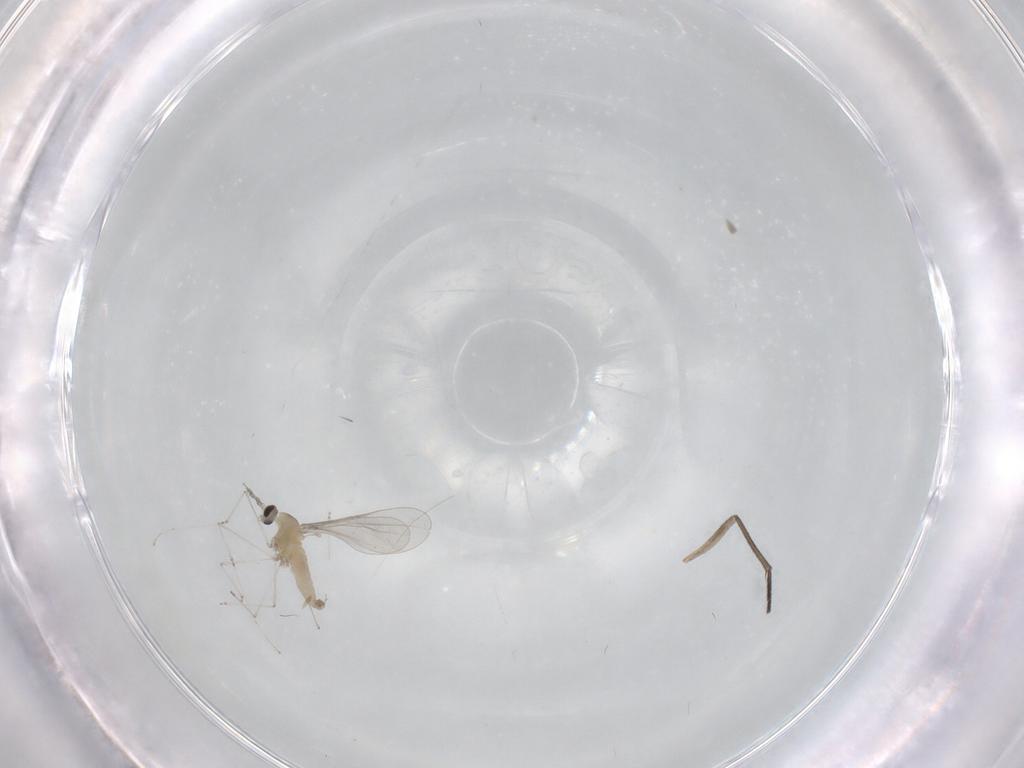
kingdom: Animalia
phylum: Arthropoda
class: Insecta
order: Diptera
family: Sciaridae
